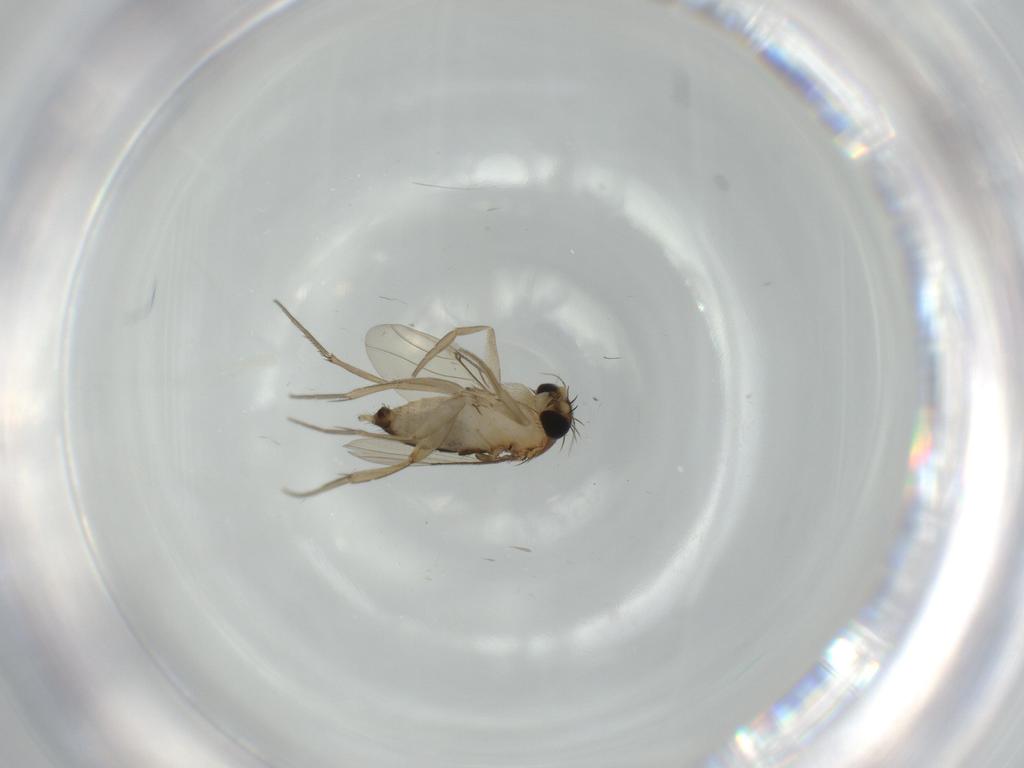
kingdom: Animalia
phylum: Arthropoda
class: Insecta
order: Diptera
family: Phoridae
